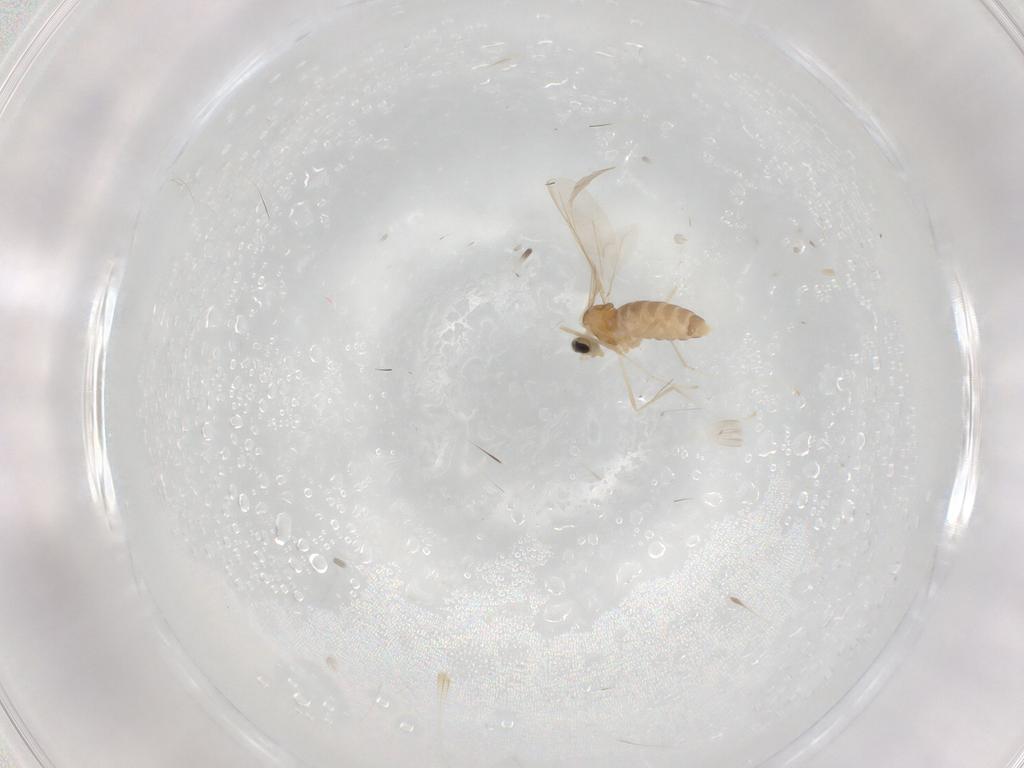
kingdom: Animalia
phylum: Arthropoda
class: Insecta
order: Diptera
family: Cecidomyiidae
